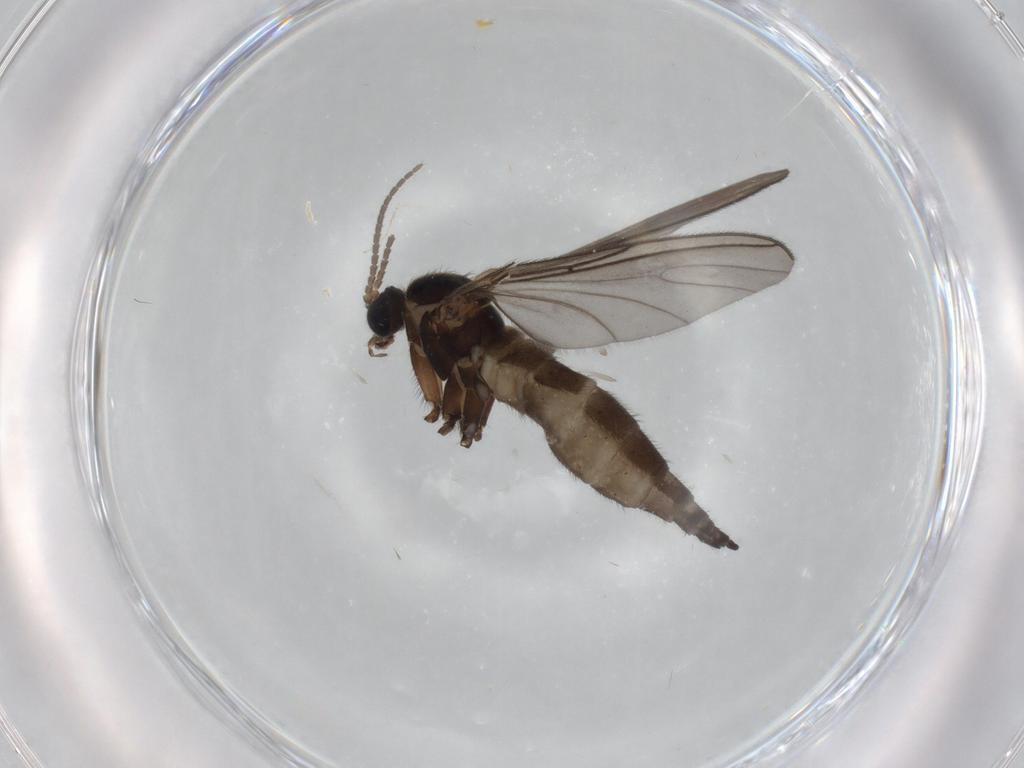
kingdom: Animalia
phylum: Arthropoda
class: Insecta
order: Diptera
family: Sciaridae
